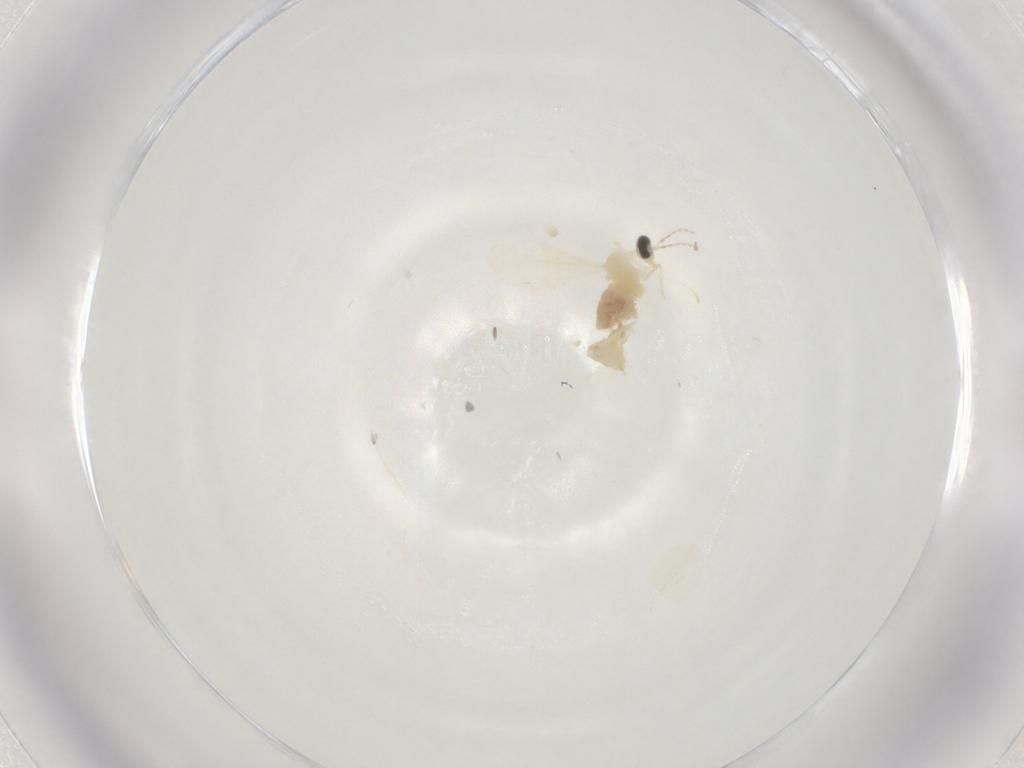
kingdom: Animalia
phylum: Arthropoda
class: Insecta
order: Diptera
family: Cecidomyiidae
